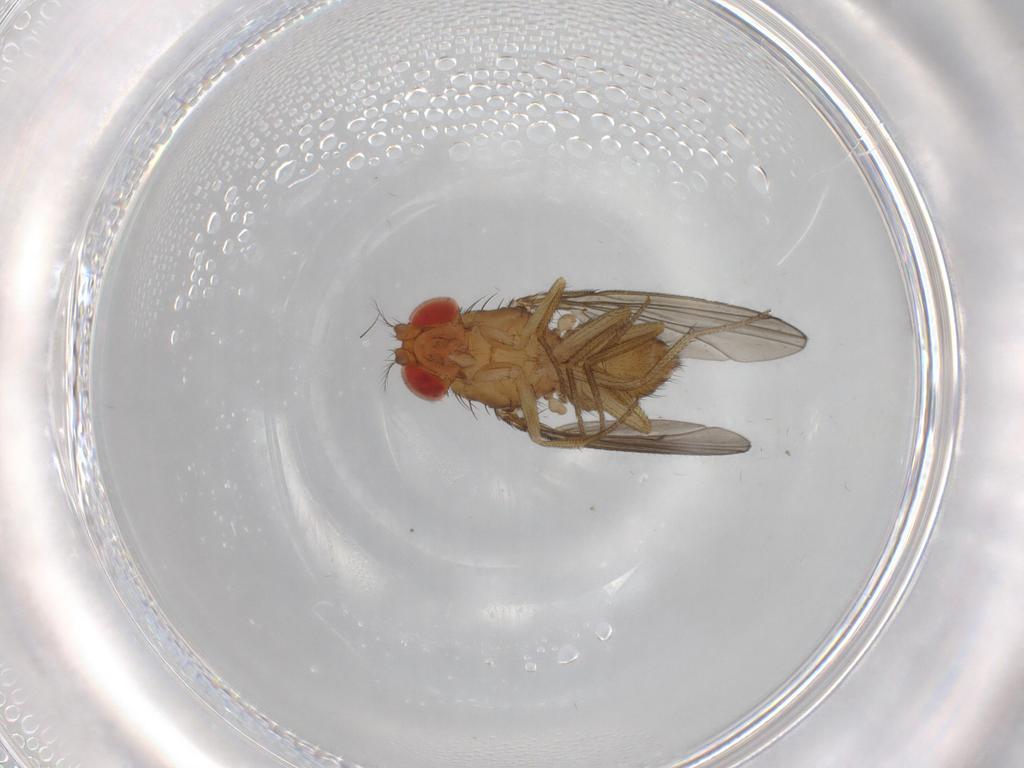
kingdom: Animalia
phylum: Arthropoda
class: Insecta
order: Diptera
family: Drosophilidae
